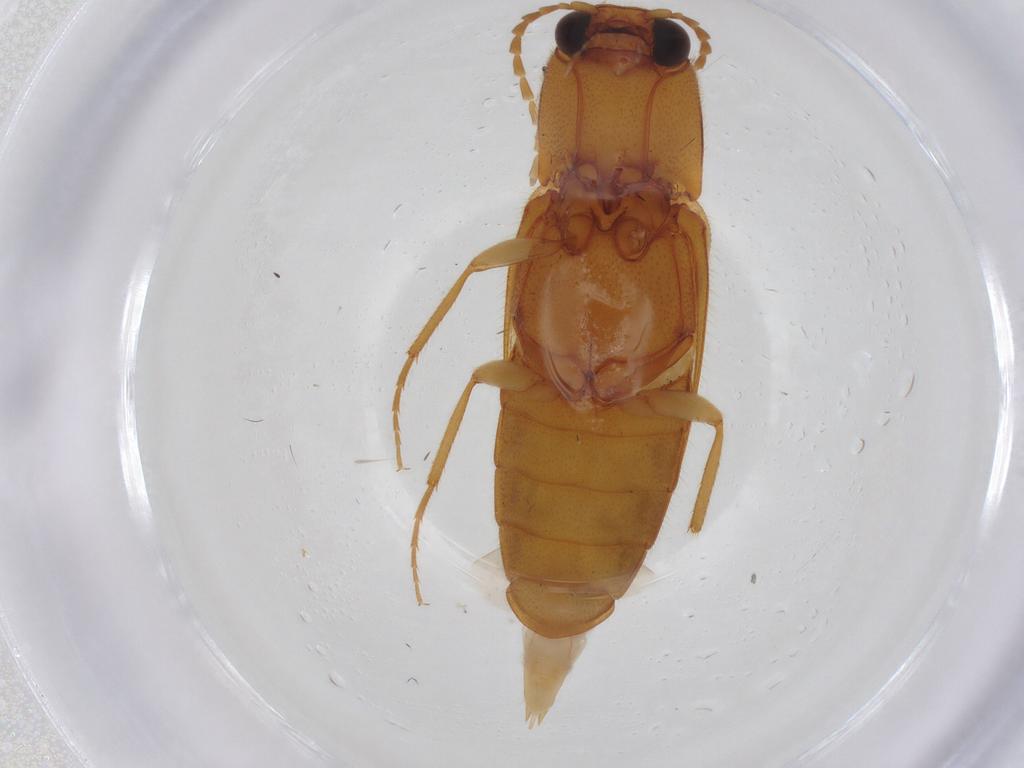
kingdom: Animalia
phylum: Arthropoda
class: Insecta
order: Coleoptera
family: Elateridae
